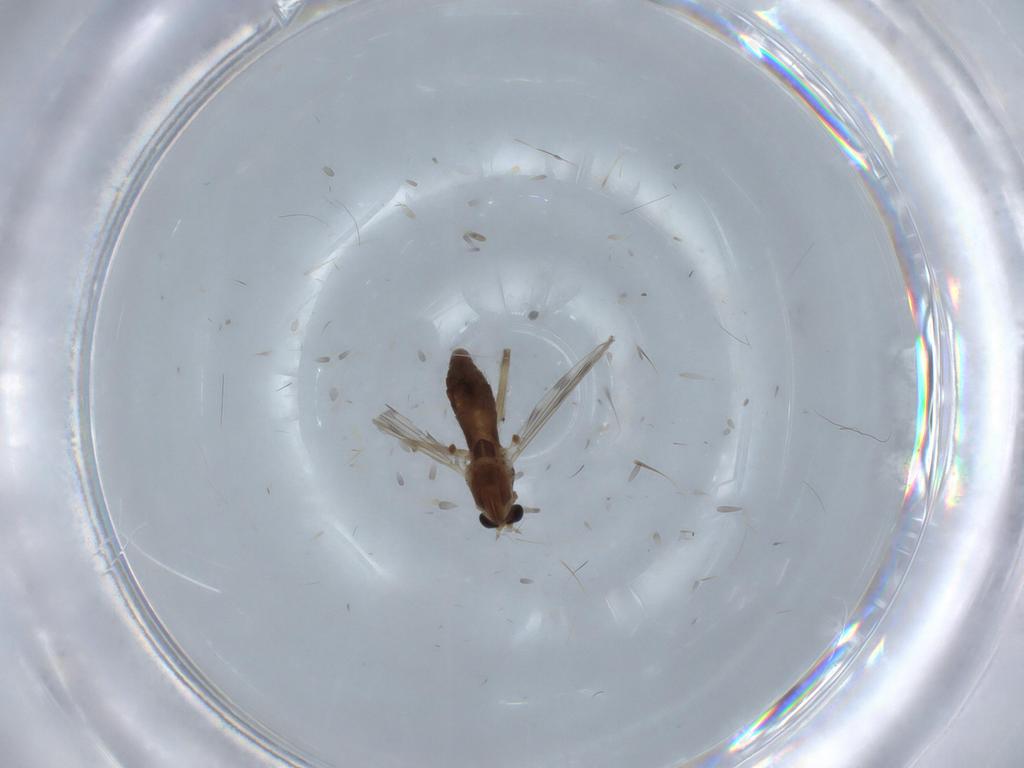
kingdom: Animalia
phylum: Arthropoda
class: Insecta
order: Diptera
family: Chironomidae
